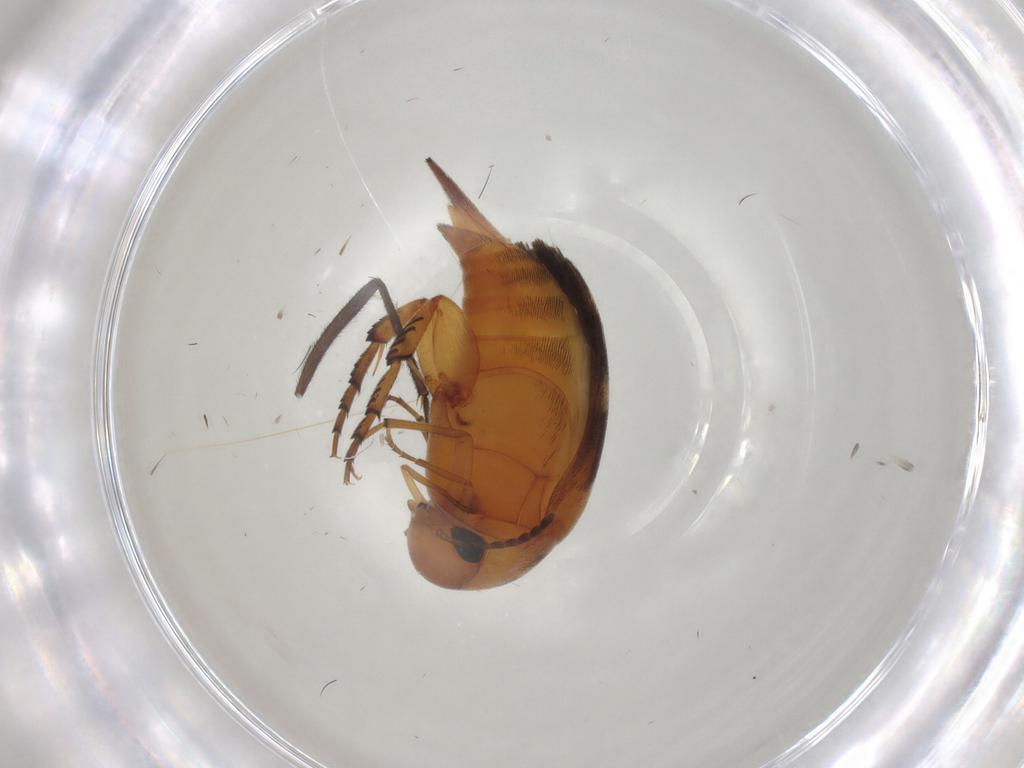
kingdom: Animalia
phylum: Arthropoda
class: Insecta
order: Coleoptera
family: Mordellidae
